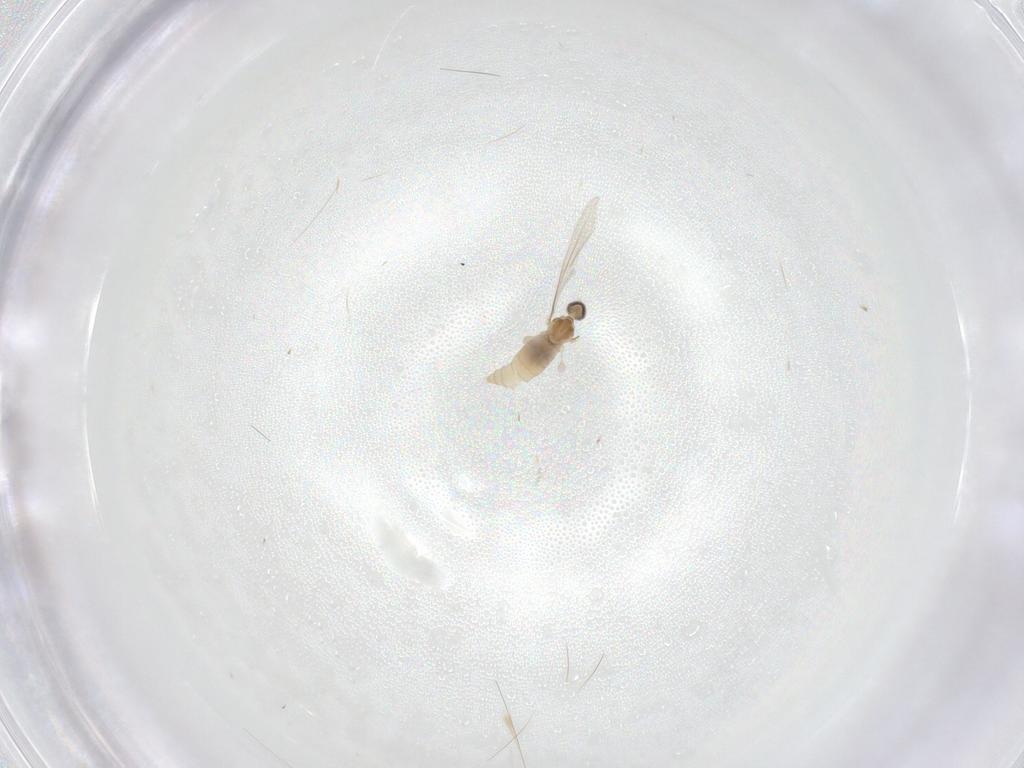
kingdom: Animalia
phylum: Arthropoda
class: Insecta
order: Diptera
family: Cecidomyiidae
